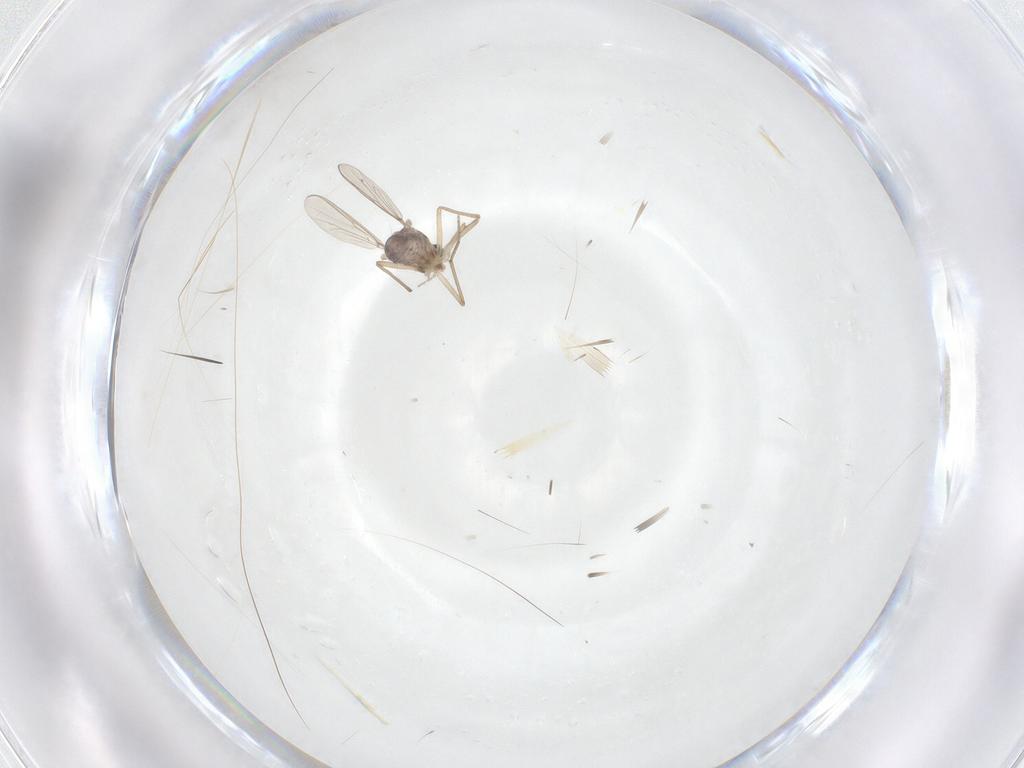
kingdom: Animalia
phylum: Arthropoda
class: Insecta
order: Diptera
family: Chironomidae
